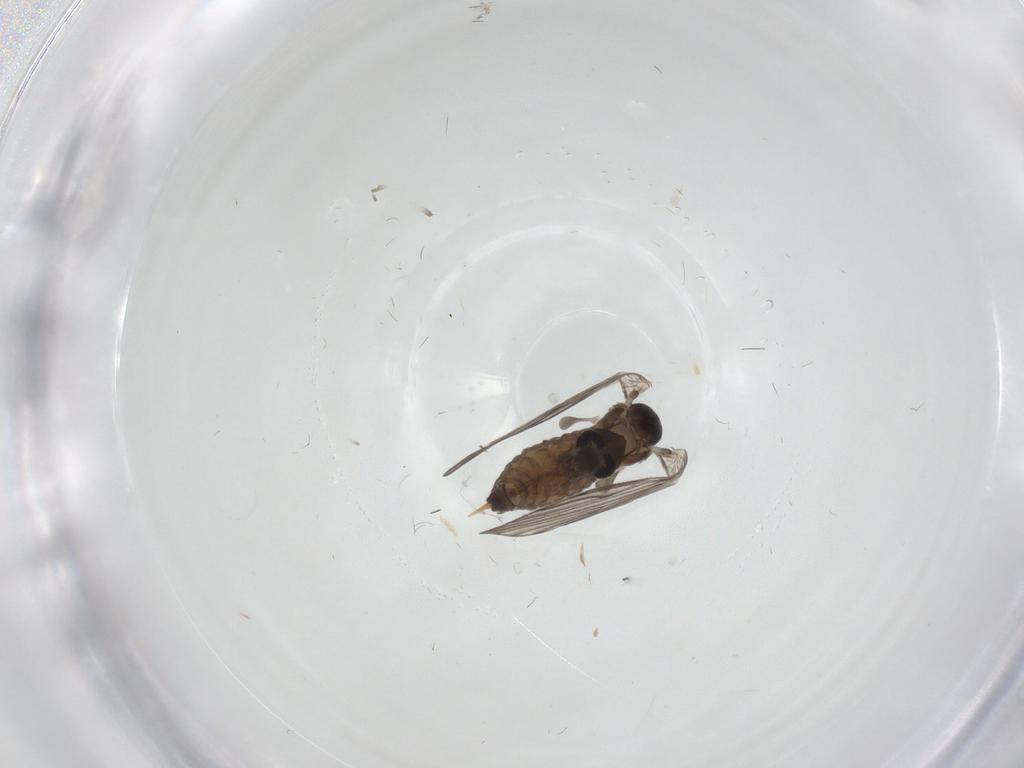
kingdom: Animalia
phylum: Arthropoda
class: Insecta
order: Diptera
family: Psychodidae
